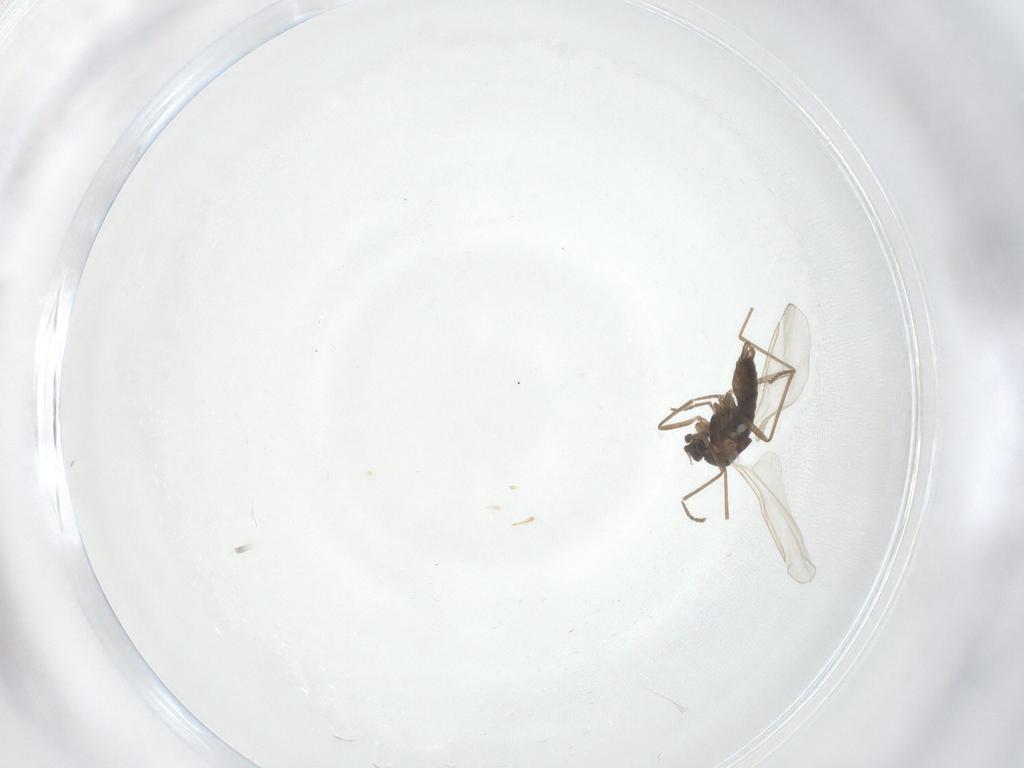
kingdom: Animalia
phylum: Arthropoda
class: Insecta
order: Diptera
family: Cecidomyiidae
